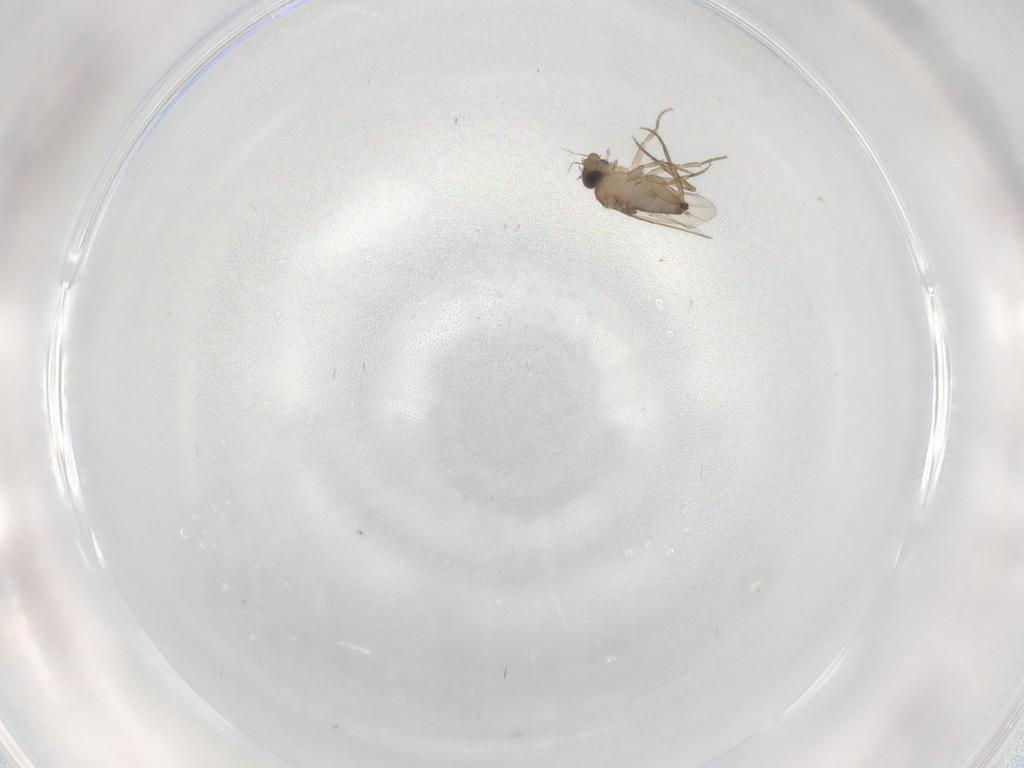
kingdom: Animalia
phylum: Arthropoda
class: Insecta
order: Diptera
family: Phoridae
